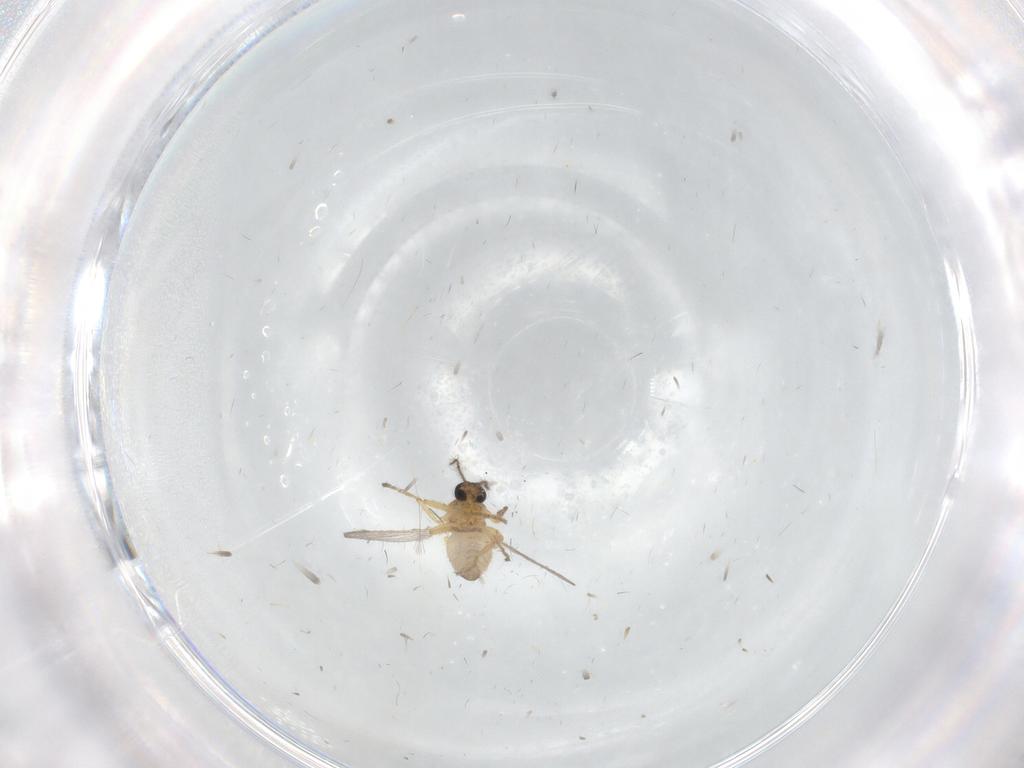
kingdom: Animalia
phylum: Arthropoda
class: Insecta
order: Diptera
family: Ceratopogonidae
